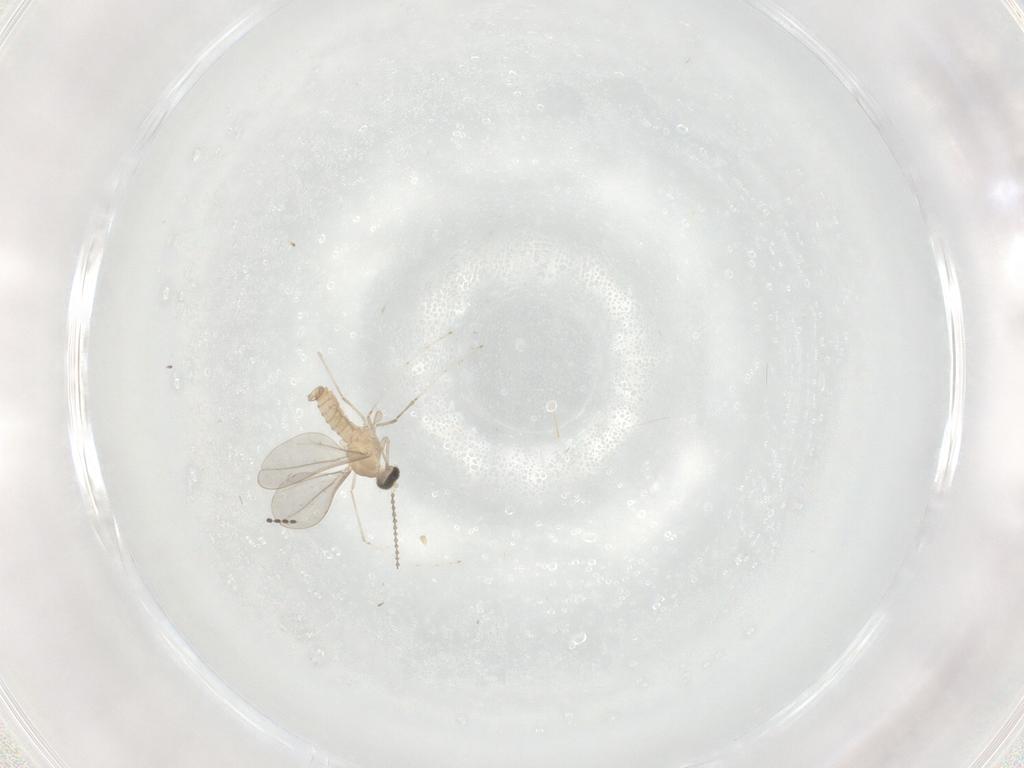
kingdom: Animalia
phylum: Arthropoda
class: Insecta
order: Diptera
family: Cecidomyiidae
